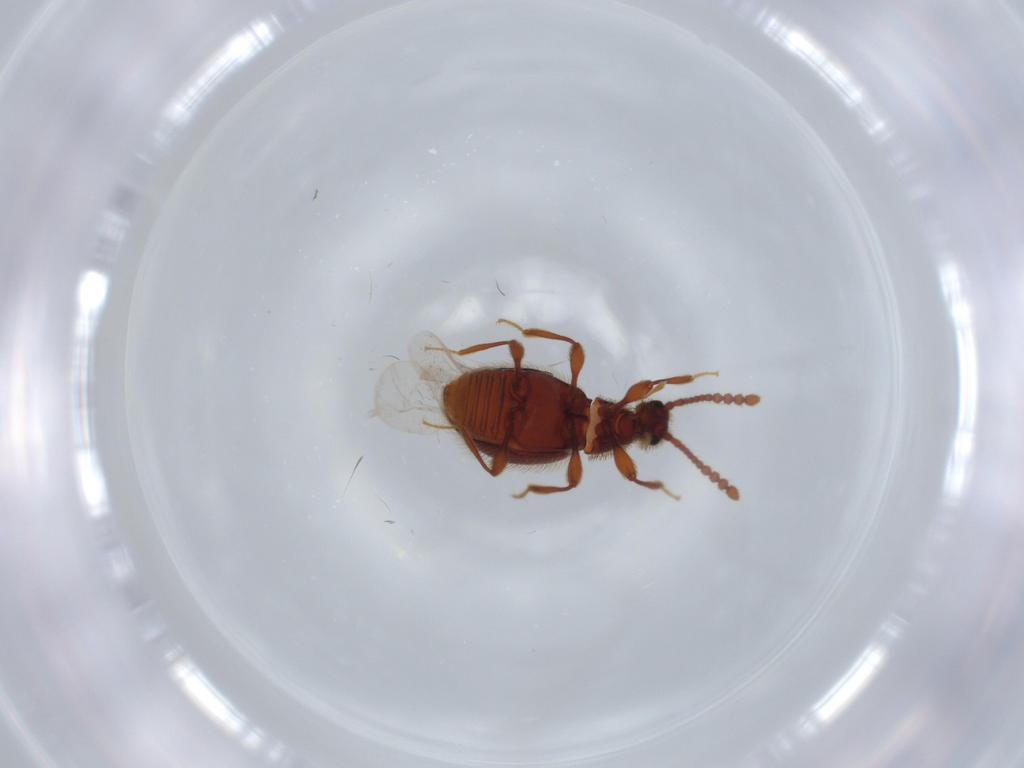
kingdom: Animalia
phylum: Arthropoda
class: Insecta
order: Coleoptera
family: Staphylinidae
